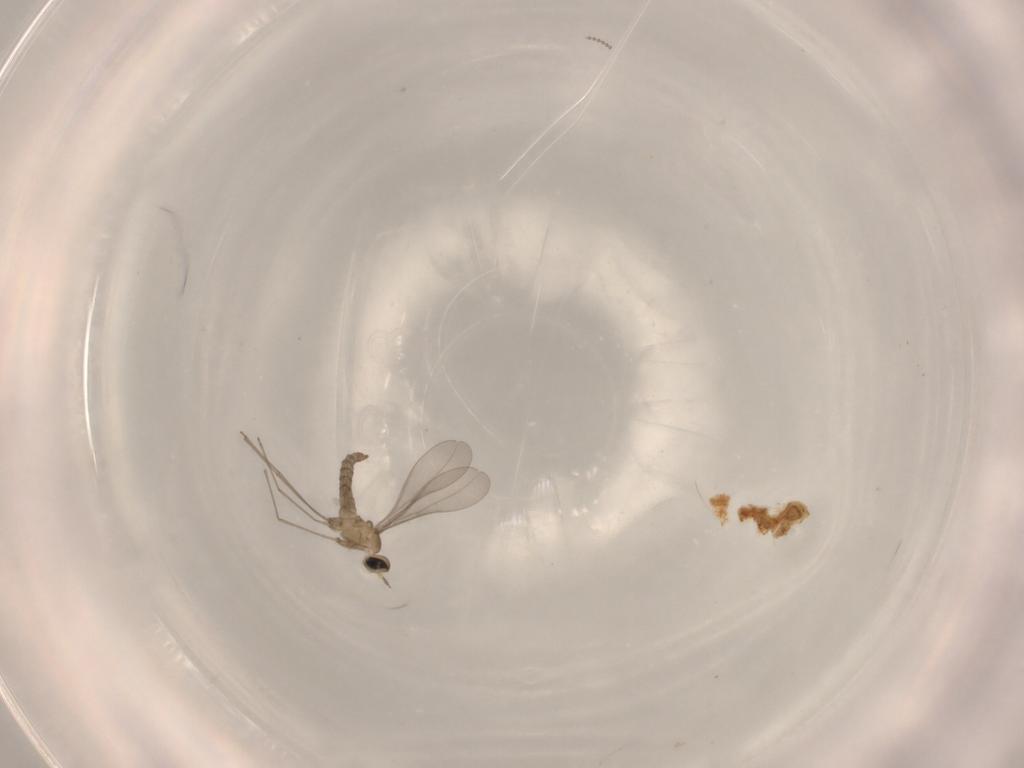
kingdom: Animalia
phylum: Arthropoda
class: Insecta
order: Diptera
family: Cecidomyiidae
